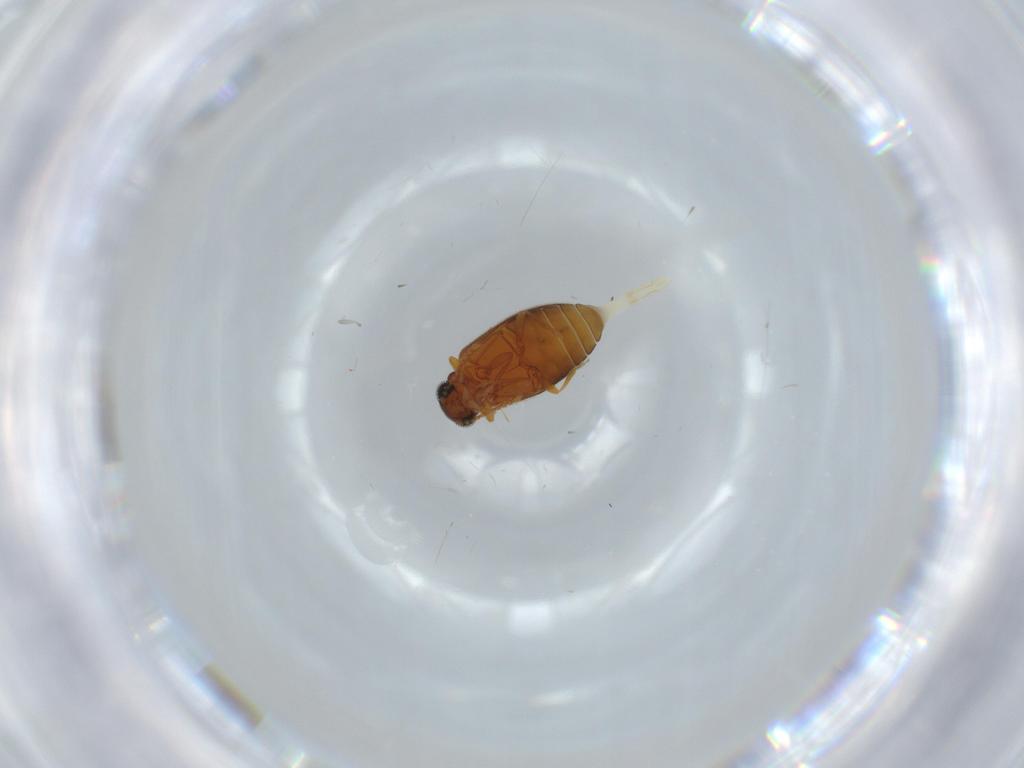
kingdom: Animalia
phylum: Arthropoda
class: Insecta
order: Coleoptera
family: Aderidae
